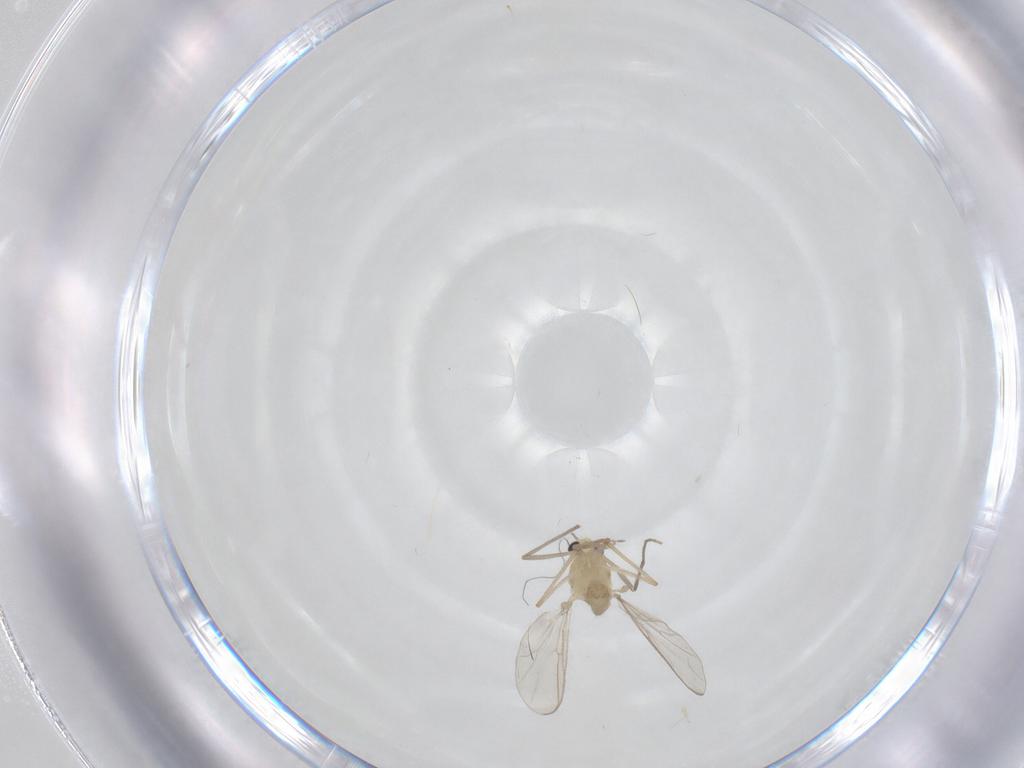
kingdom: Animalia
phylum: Arthropoda
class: Insecta
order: Diptera
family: Chironomidae
